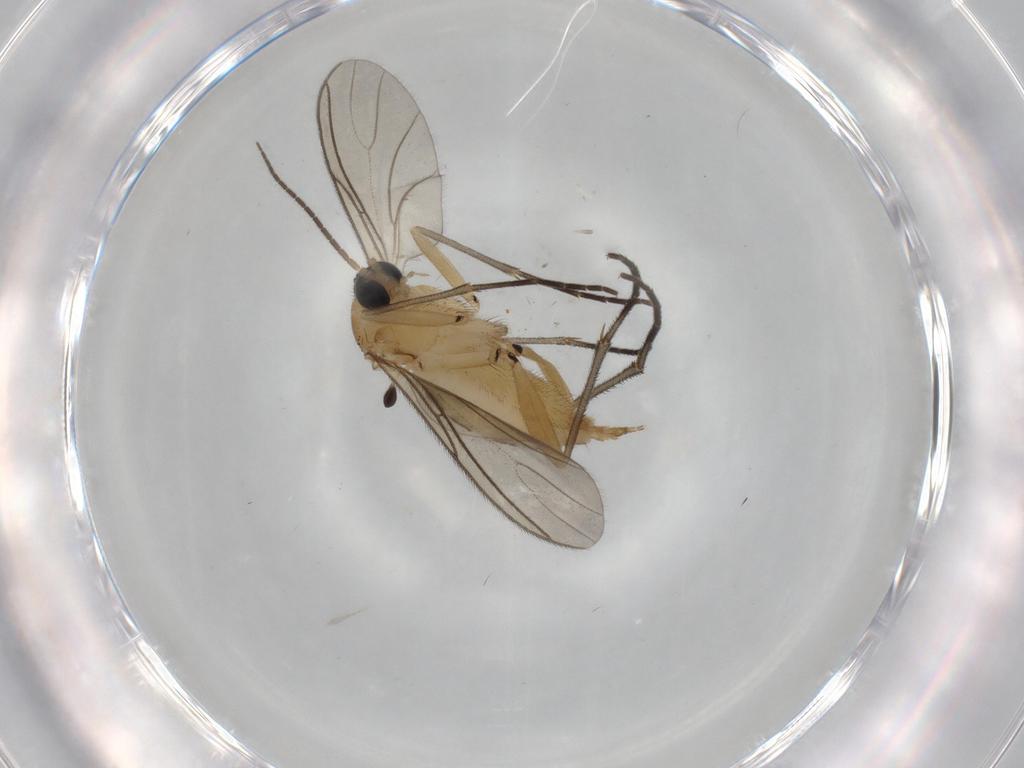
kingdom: Animalia
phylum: Arthropoda
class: Insecta
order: Diptera
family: Sciaridae
